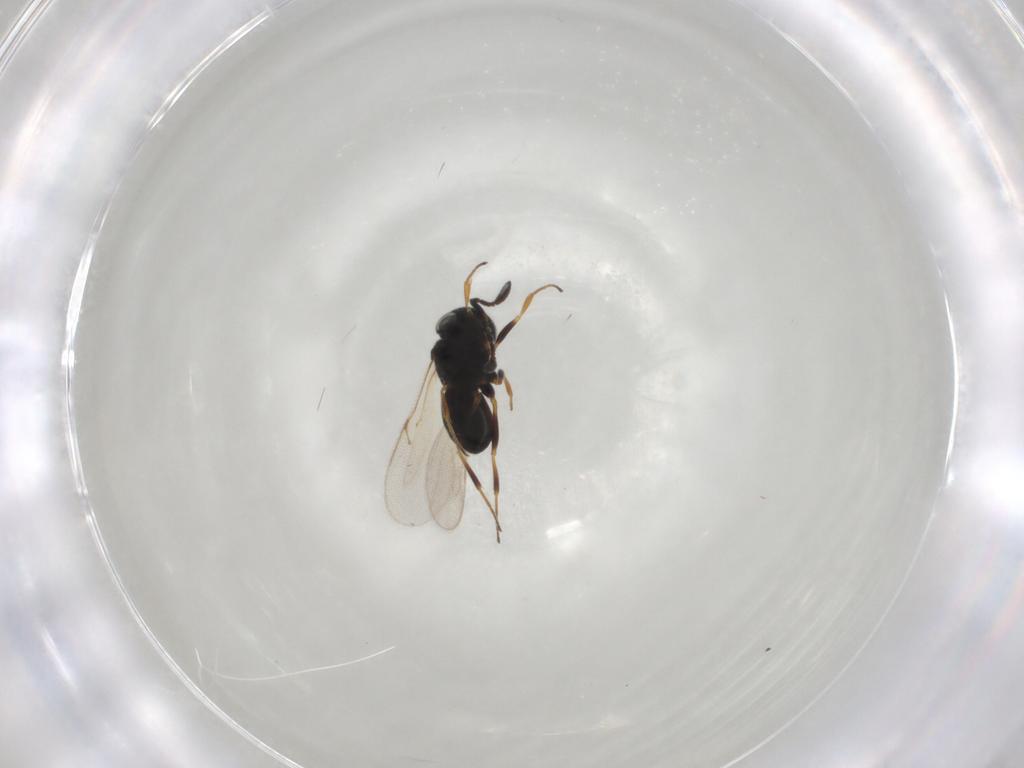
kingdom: Animalia
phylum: Arthropoda
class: Insecta
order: Hymenoptera
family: Scelionidae
